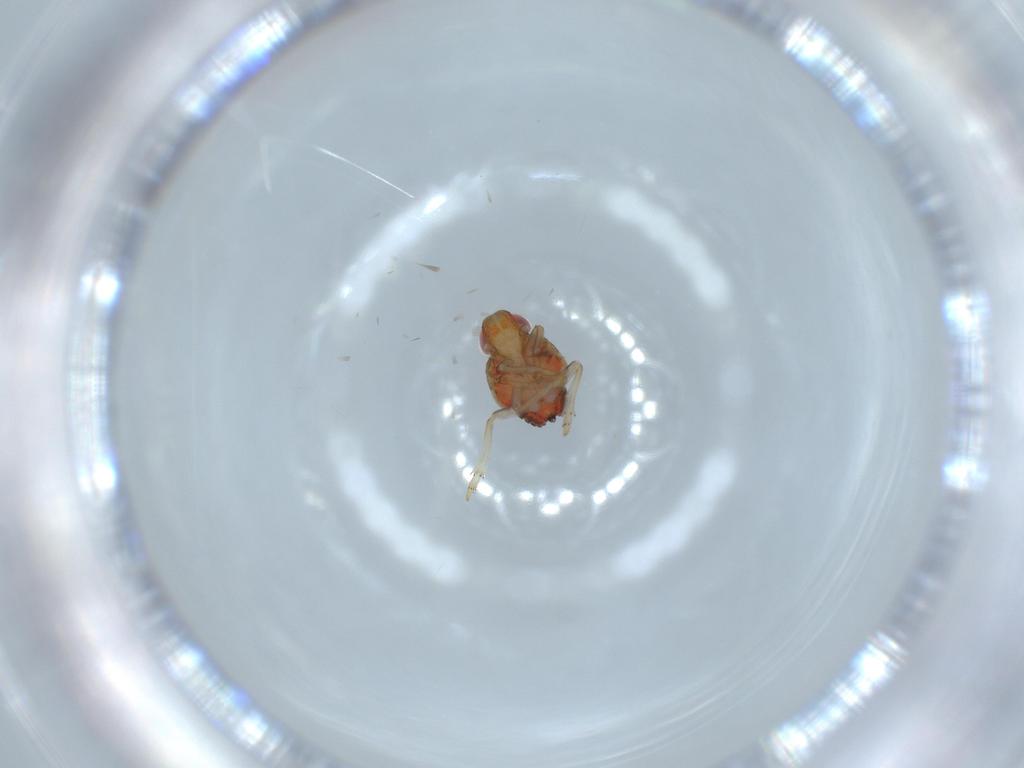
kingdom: Animalia
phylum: Arthropoda
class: Insecta
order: Hemiptera
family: Issidae
